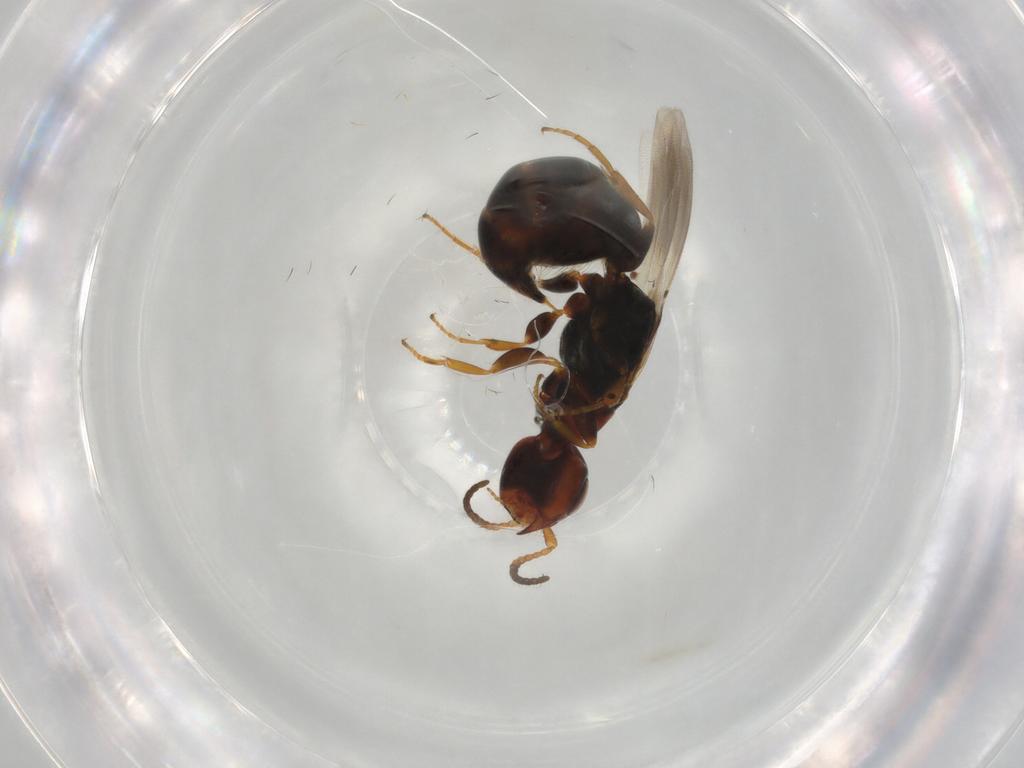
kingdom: Animalia
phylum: Arthropoda
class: Insecta
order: Hymenoptera
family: Bethylidae
